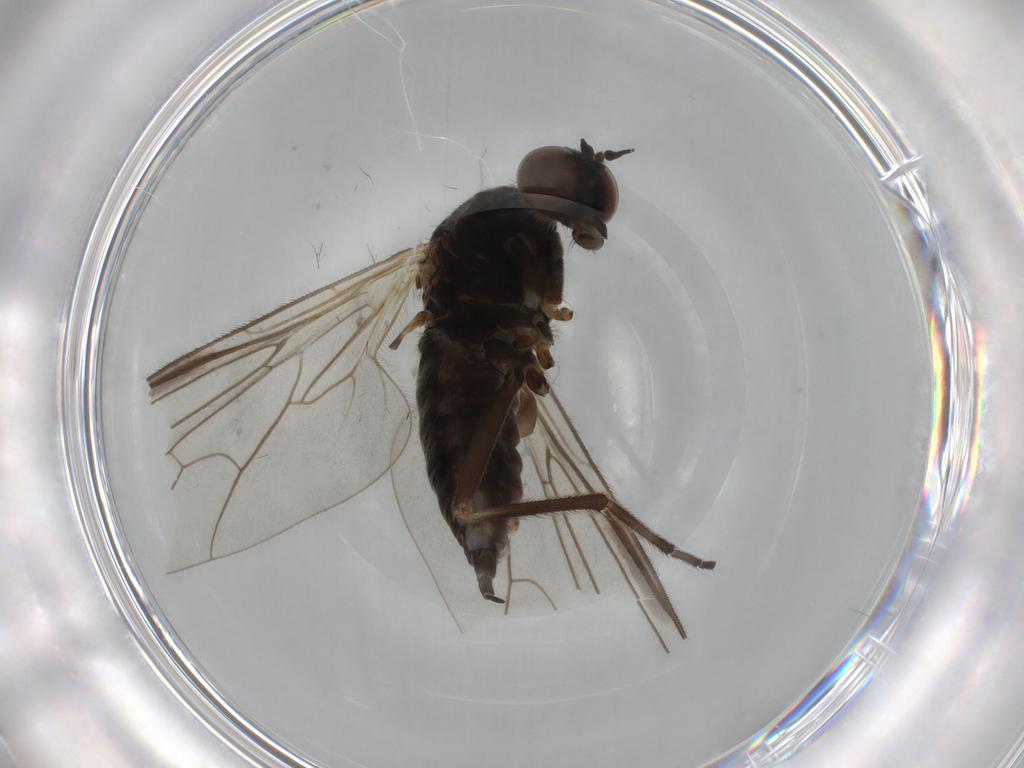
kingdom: Animalia
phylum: Arthropoda
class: Insecta
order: Diptera
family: Empididae
